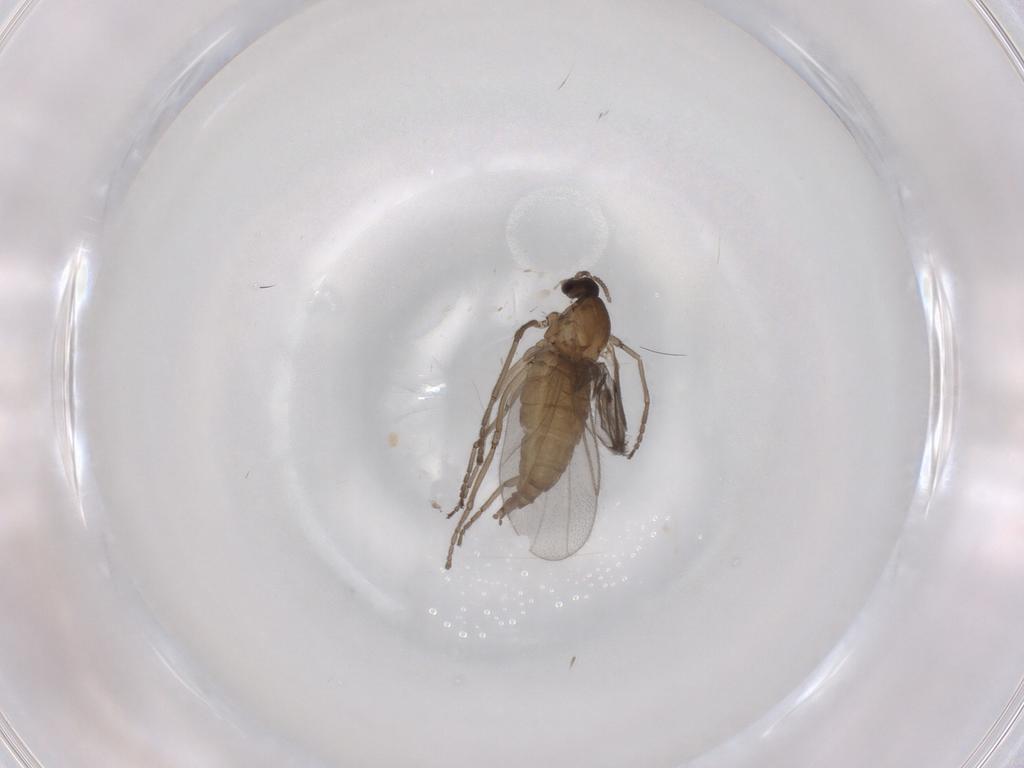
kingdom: Animalia
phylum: Arthropoda
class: Insecta
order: Diptera
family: Cecidomyiidae
